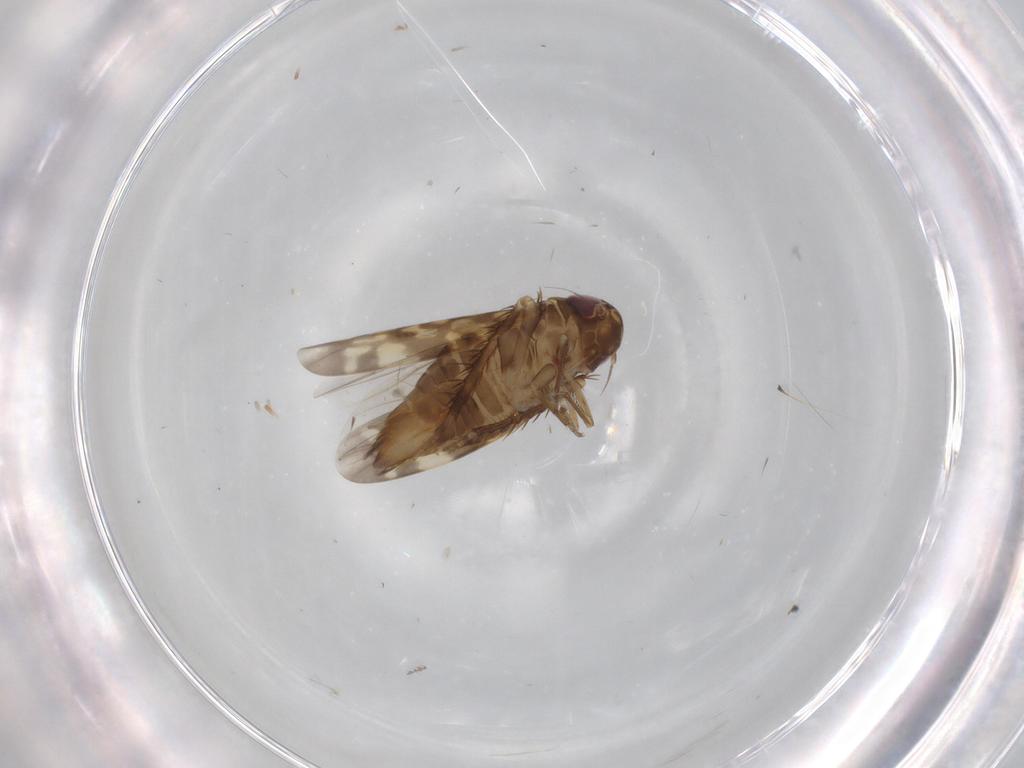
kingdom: Animalia
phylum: Arthropoda
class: Insecta
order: Hemiptera
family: Cicadellidae
